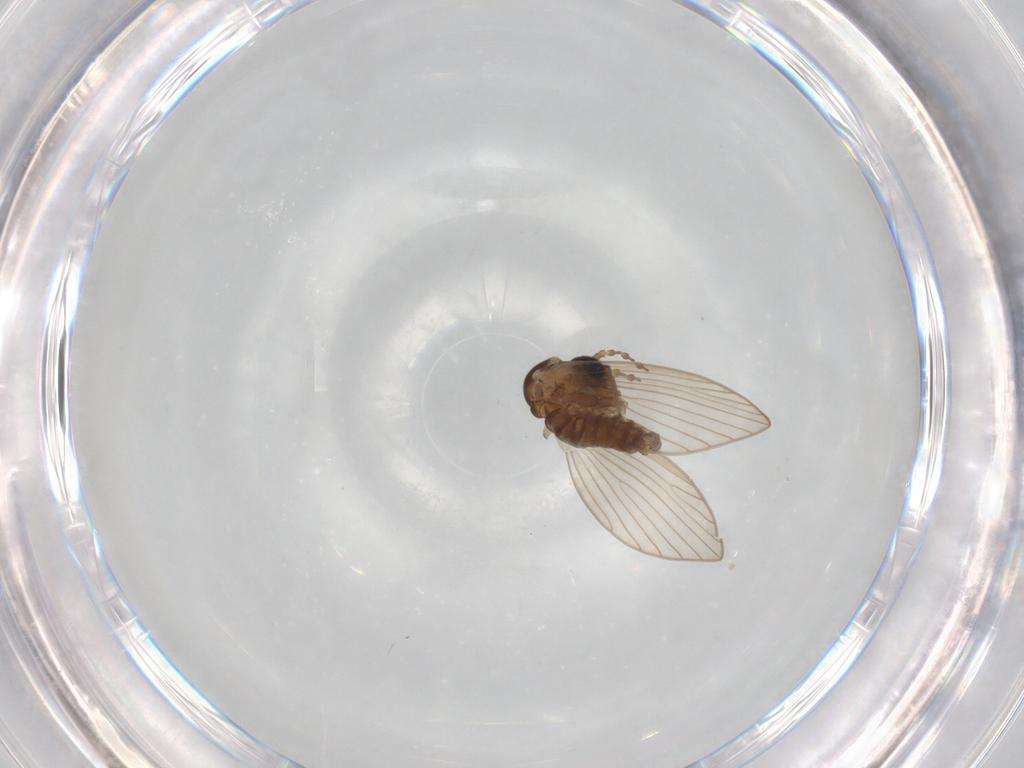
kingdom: Animalia
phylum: Arthropoda
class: Insecta
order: Diptera
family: Psychodidae
